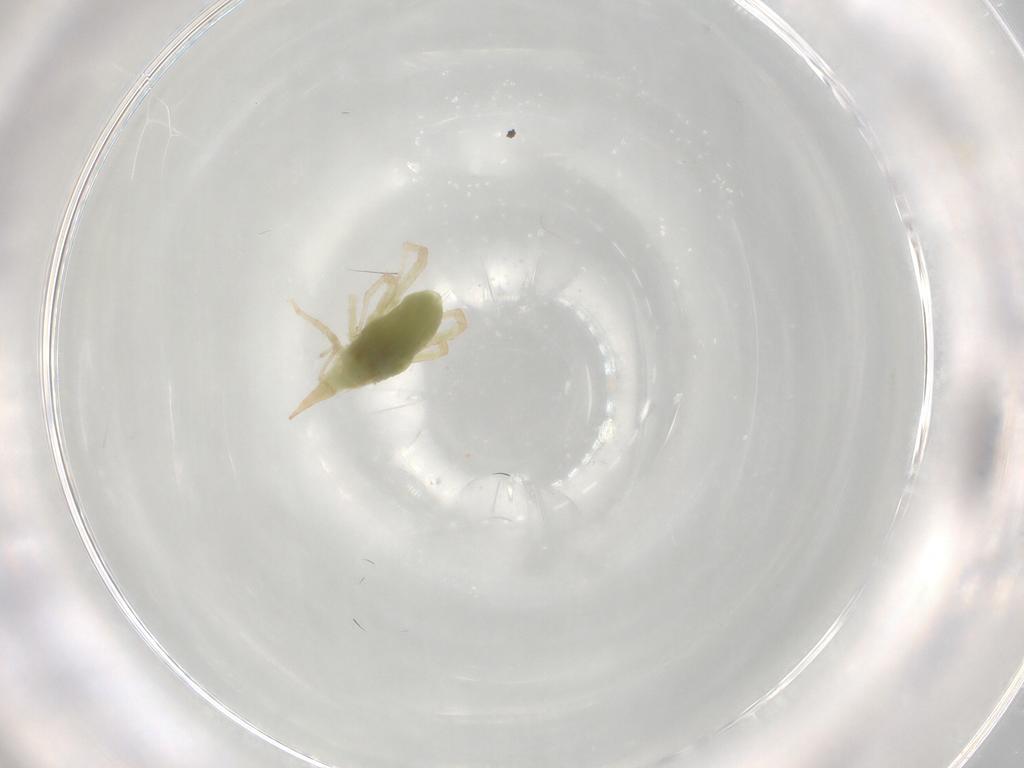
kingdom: Animalia
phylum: Arthropoda
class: Arachnida
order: Trombidiformes
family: Bdellidae
